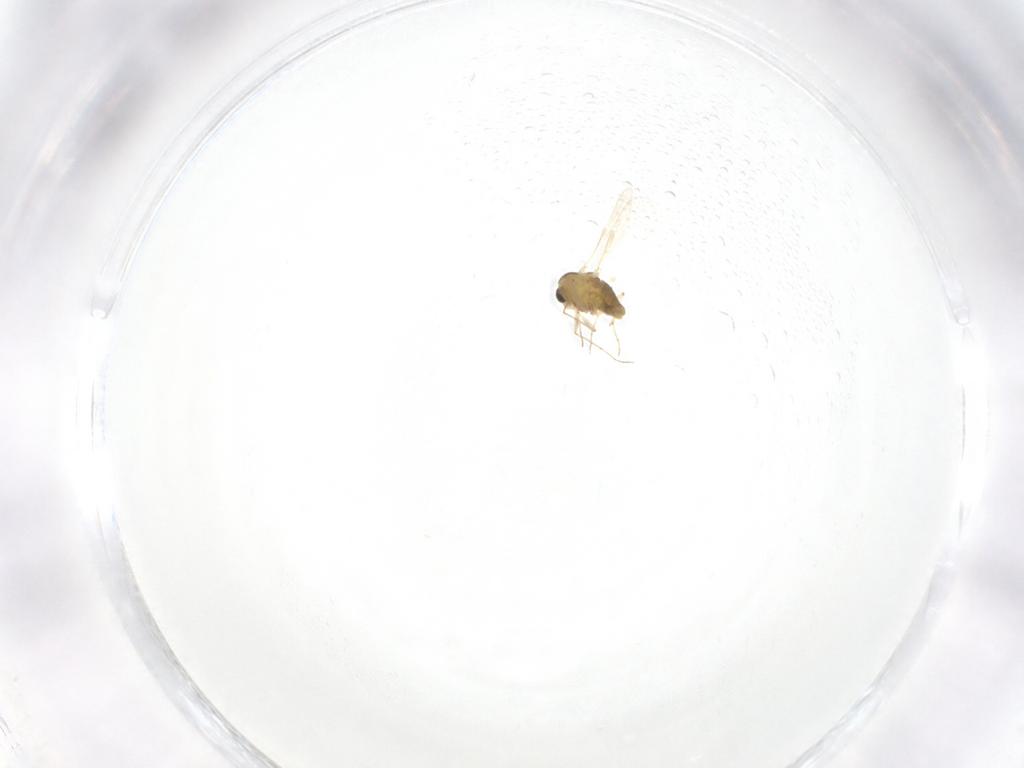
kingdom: Animalia
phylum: Arthropoda
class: Insecta
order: Diptera
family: Chironomidae
